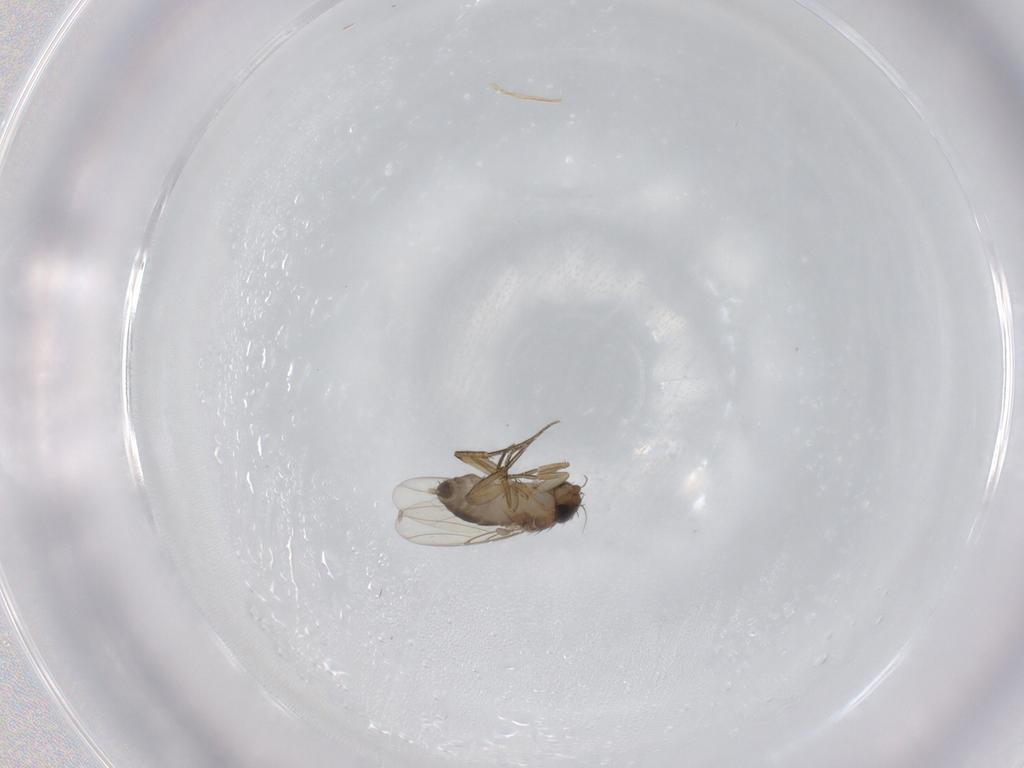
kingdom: Animalia
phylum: Arthropoda
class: Insecta
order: Diptera
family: Phoridae
